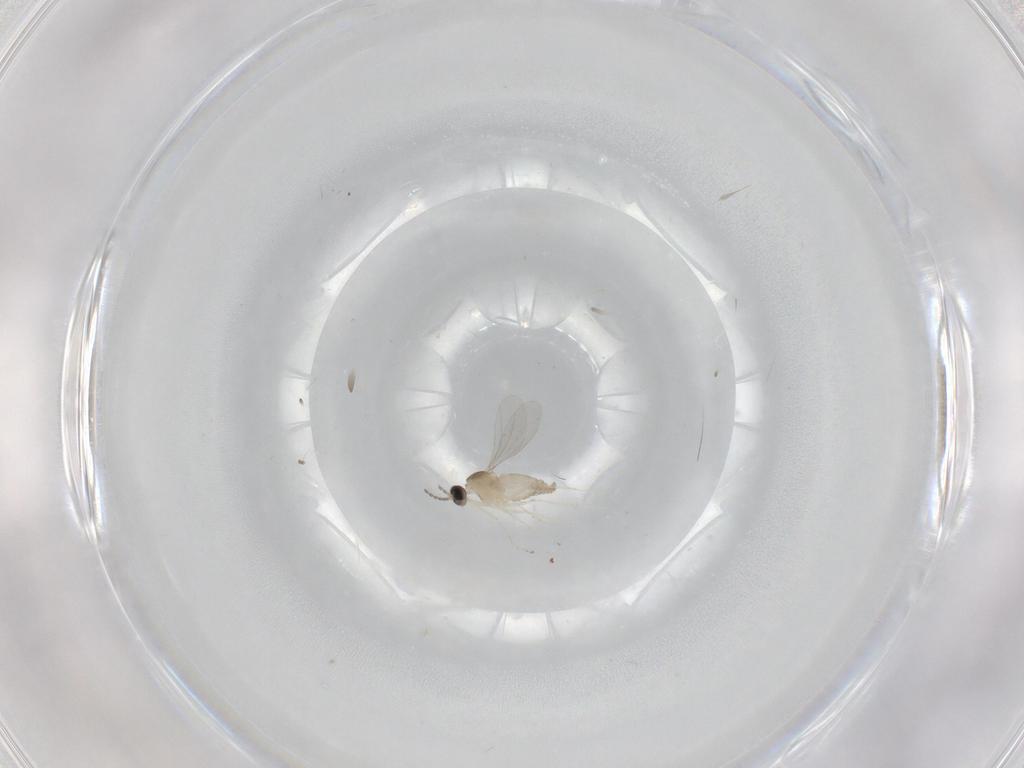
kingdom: Animalia
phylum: Arthropoda
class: Insecta
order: Diptera
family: Cecidomyiidae
